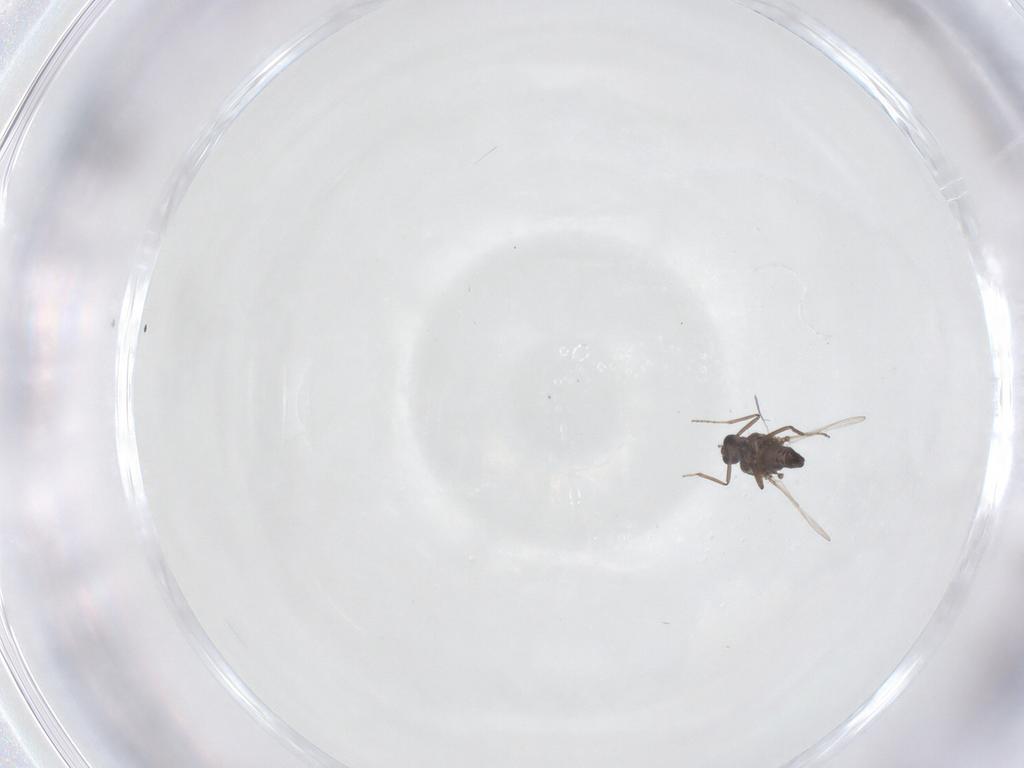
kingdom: Animalia
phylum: Arthropoda
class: Insecta
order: Diptera
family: Ceratopogonidae
